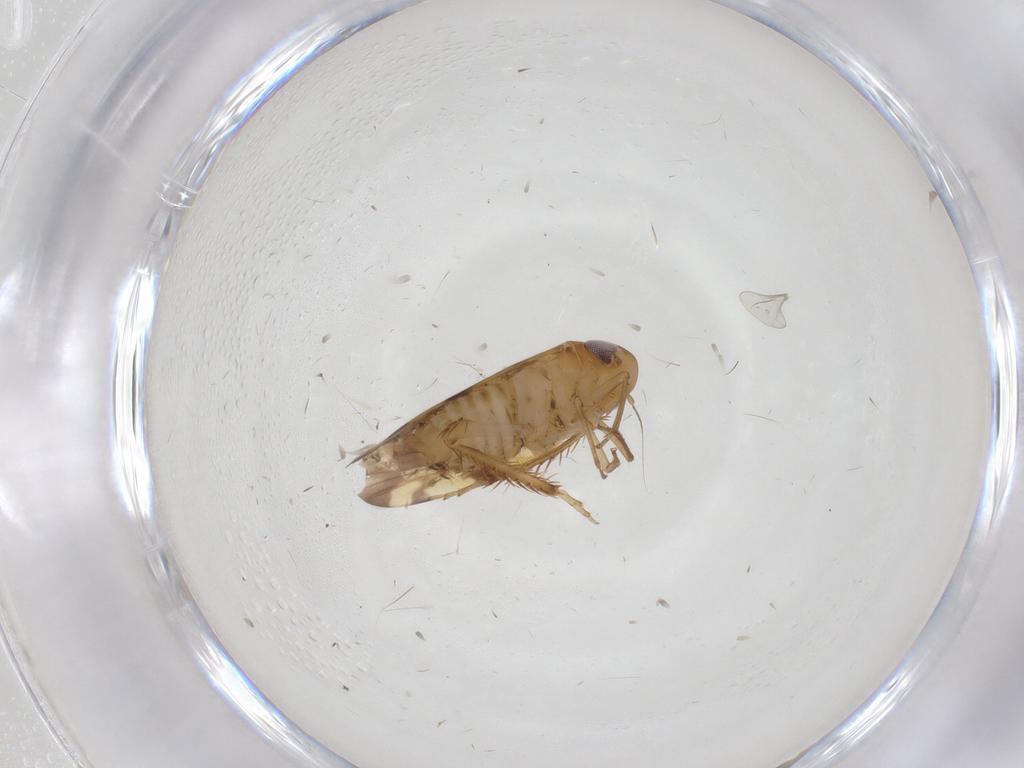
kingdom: Animalia
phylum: Arthropoda
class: Insecta
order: Hemiptera
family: Cicadellidae
